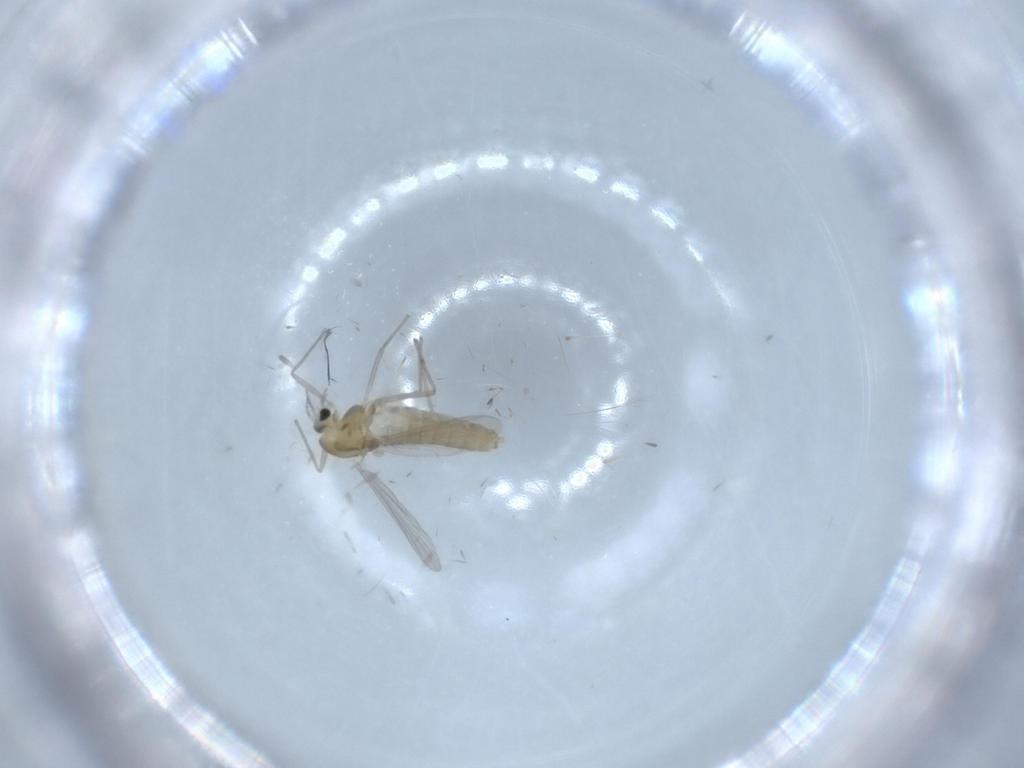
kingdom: Animalia
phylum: Arthropoda
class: Insecta
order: Diptera
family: Chironomidae
